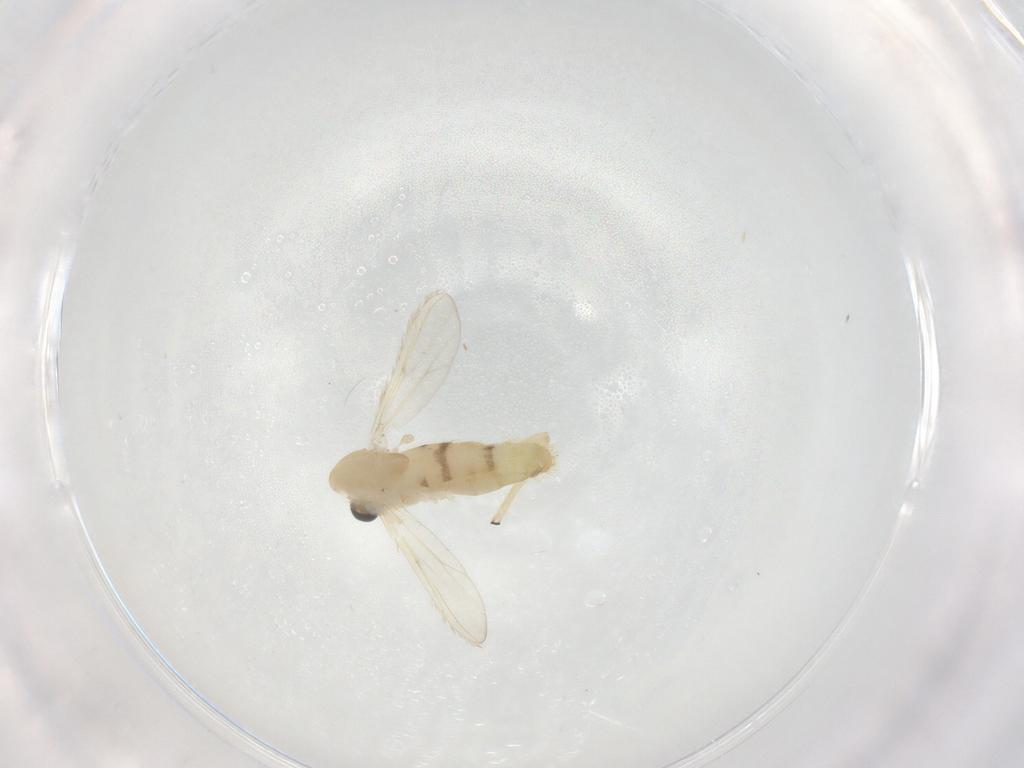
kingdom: Animalia
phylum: Arthropoda
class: Insecta
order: Diptera
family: Chironomidae
